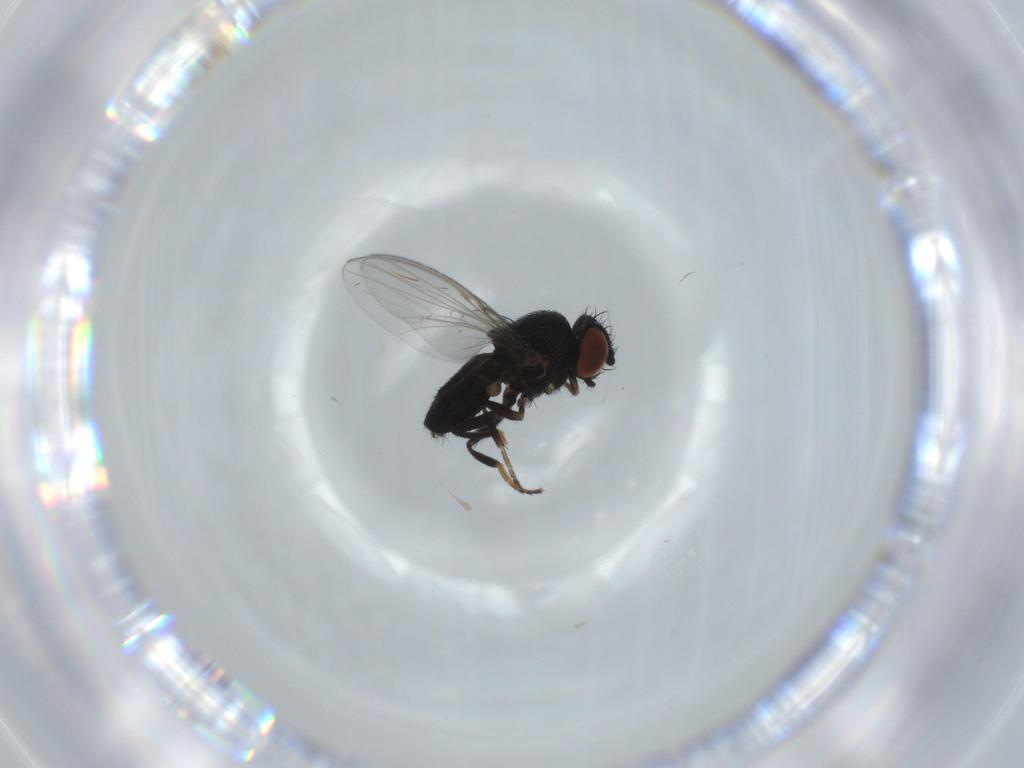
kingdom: Animalia
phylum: Arthropoda
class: Insecta
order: Diptera
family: Milichiidae
